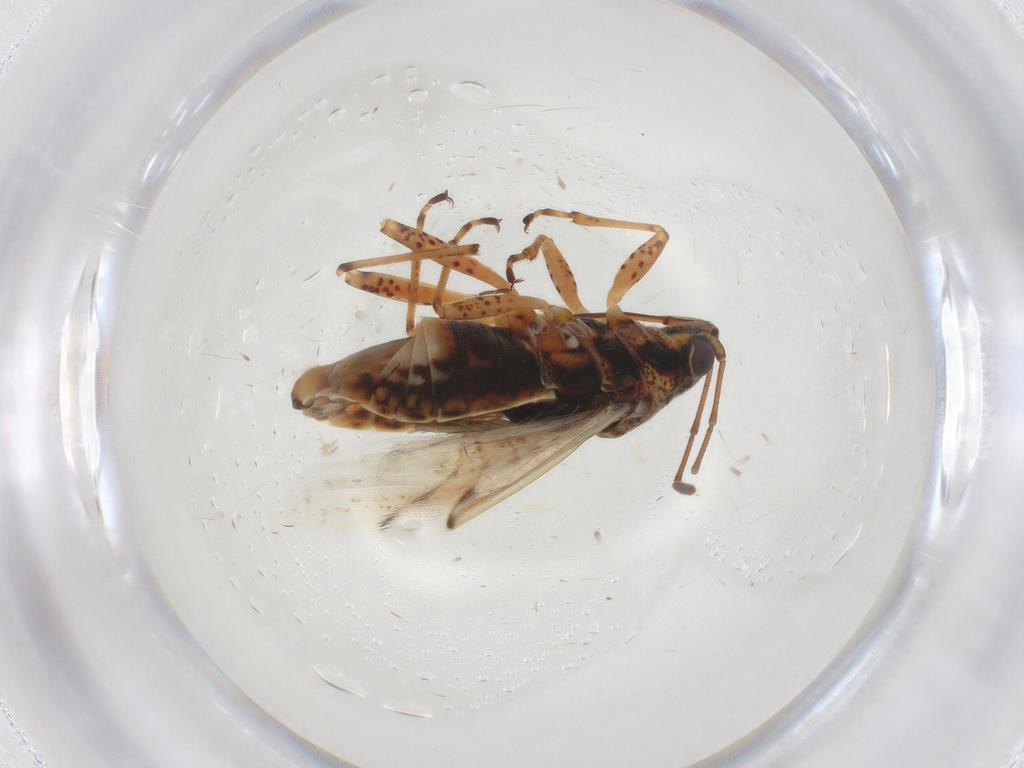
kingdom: Animalia
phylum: Arthropoda
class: Insecta
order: Hemiptera
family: Lygaeidae
